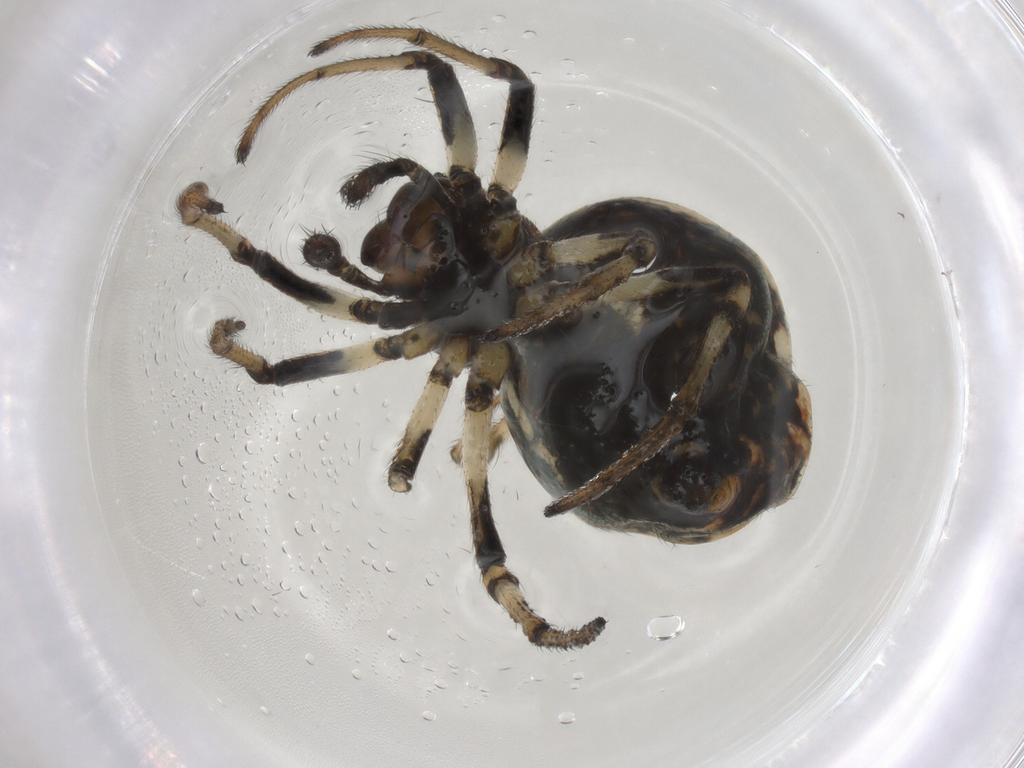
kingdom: Animalia
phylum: Arthropoda
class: Arachnida
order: Araneae
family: Araneidae
